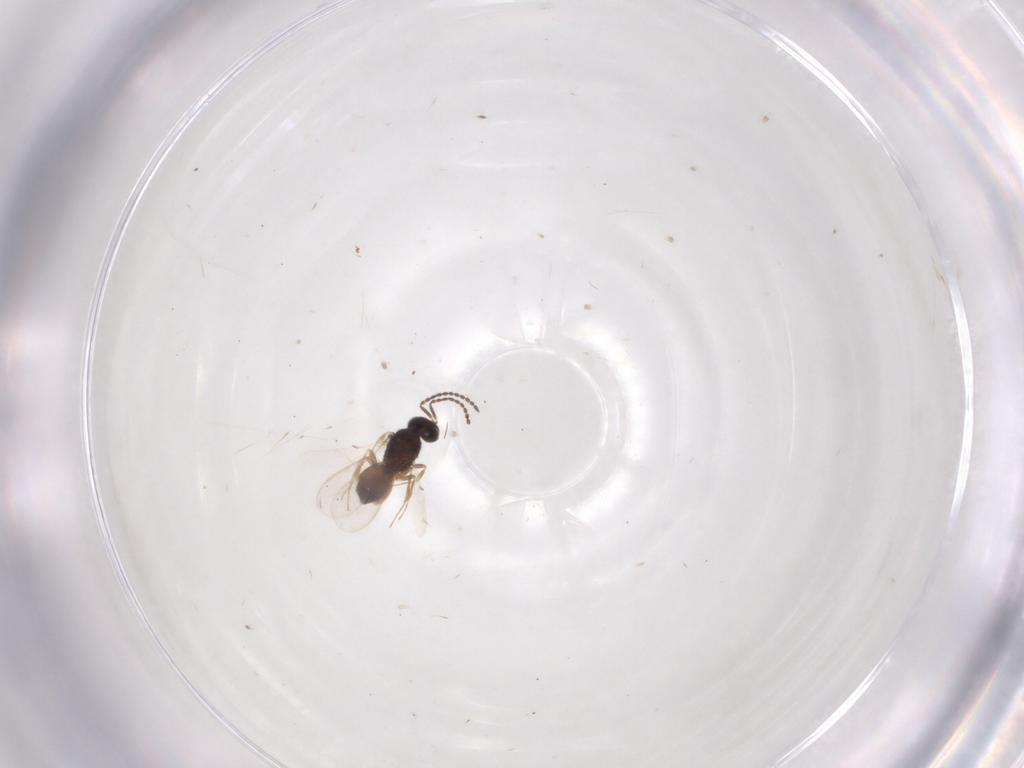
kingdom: Animalia
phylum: Arthropoda
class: Insecta
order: Hymenoptera
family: Scelionidae
